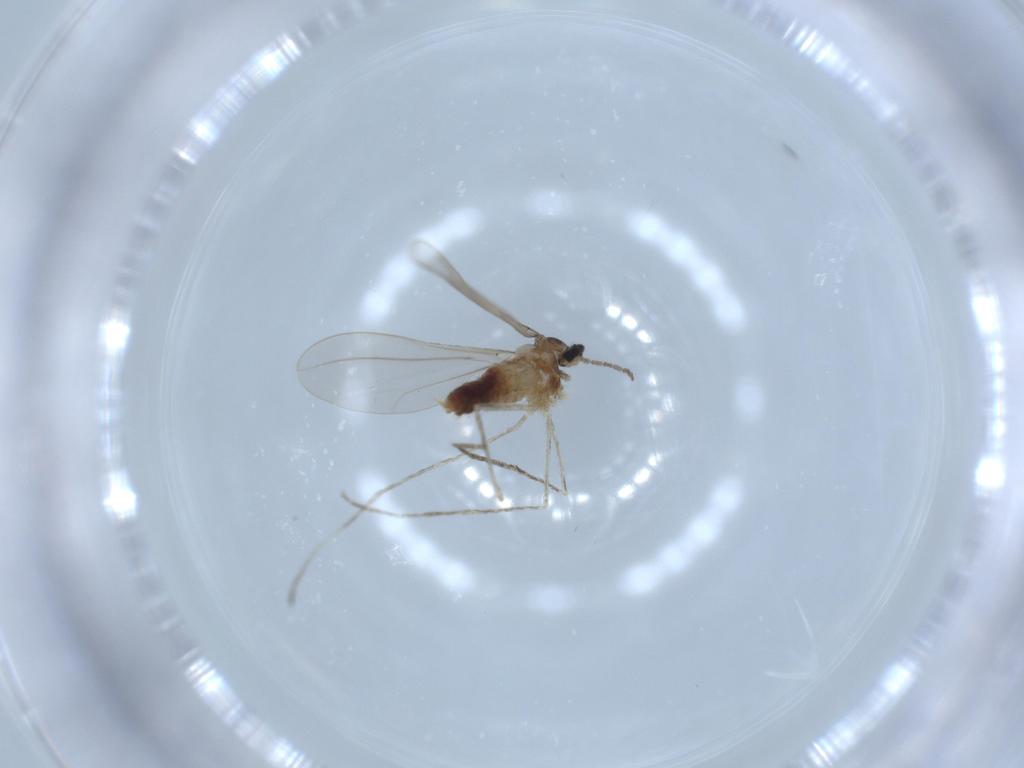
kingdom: Animalia
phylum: Arthropoda
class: Insecta
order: Diptera
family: Cecidomyiidae
